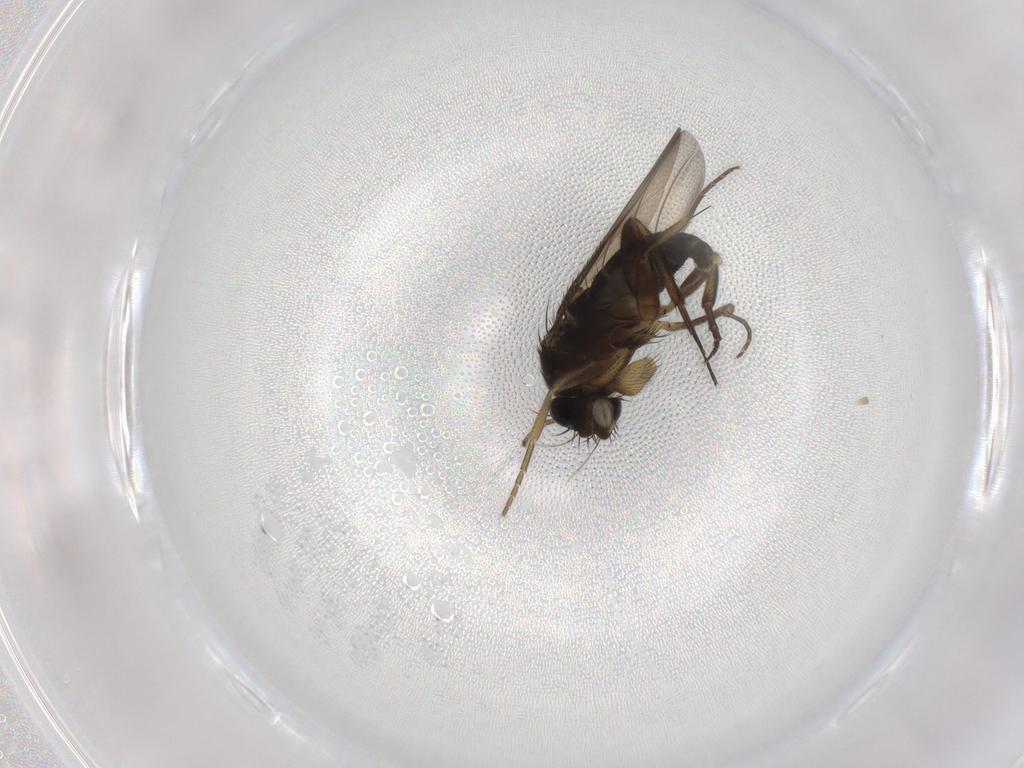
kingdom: Animalia
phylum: Arthropoda
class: Insecta
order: Diptera
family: Phoridae
